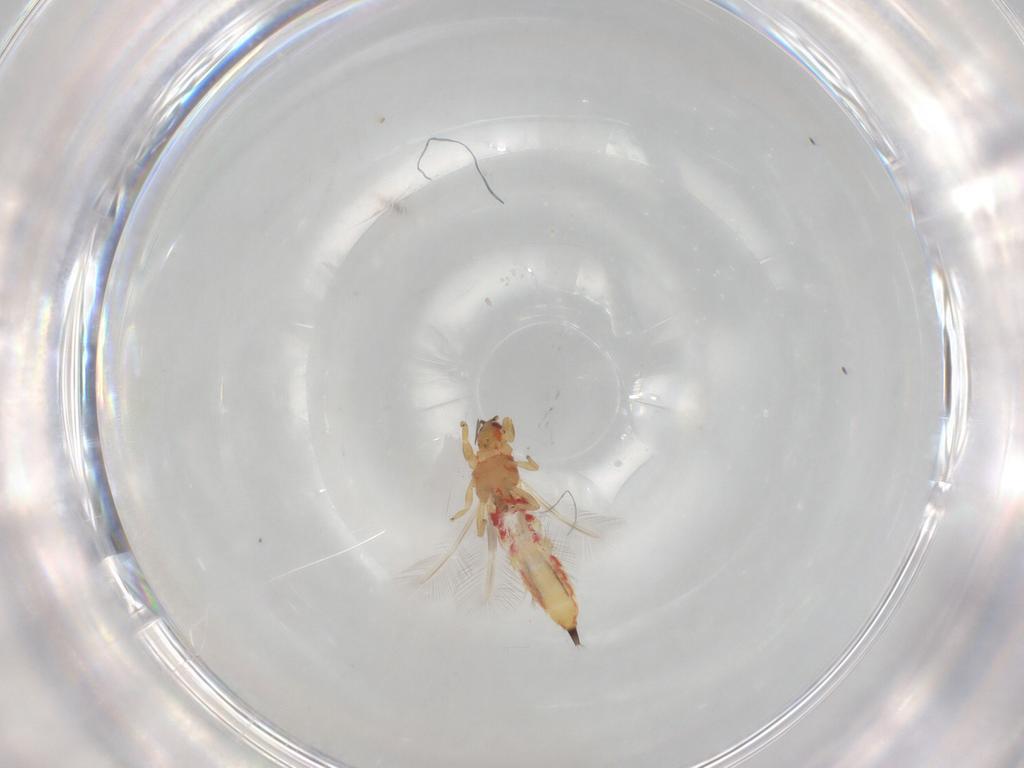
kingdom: Animalia
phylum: Arthropoda
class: Insecta
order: Thysanoptera
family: Phlaeothripidae
